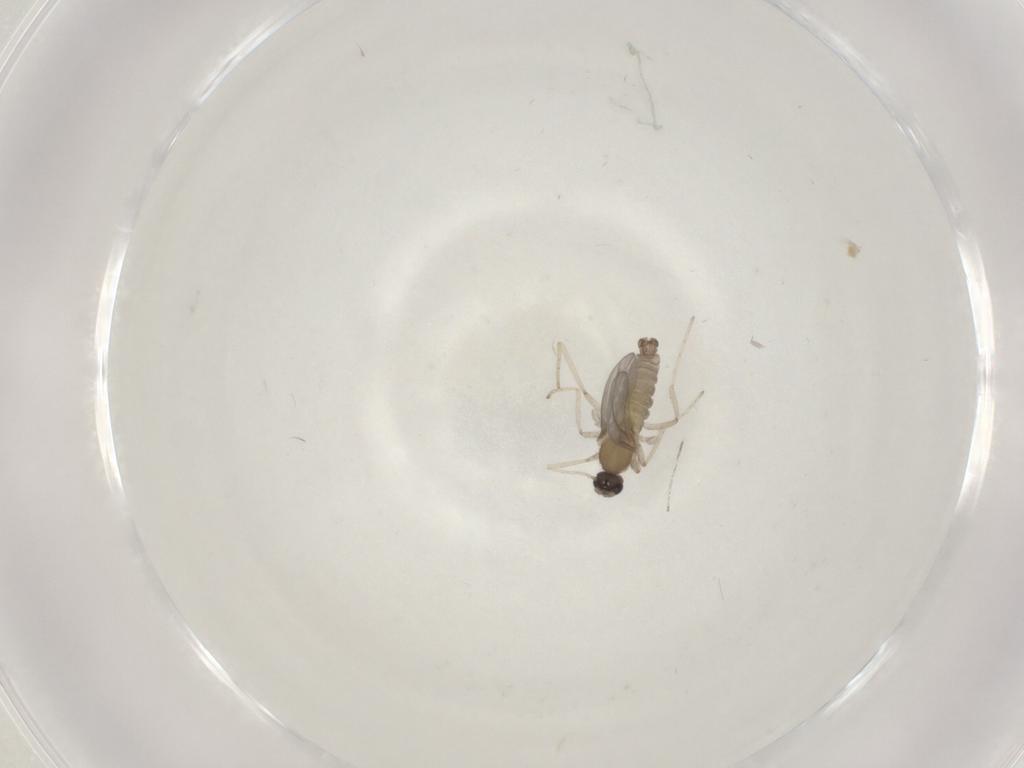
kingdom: Animalia
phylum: Arthropoda
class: Insecta
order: Diptera
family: Cecidomyiidae
